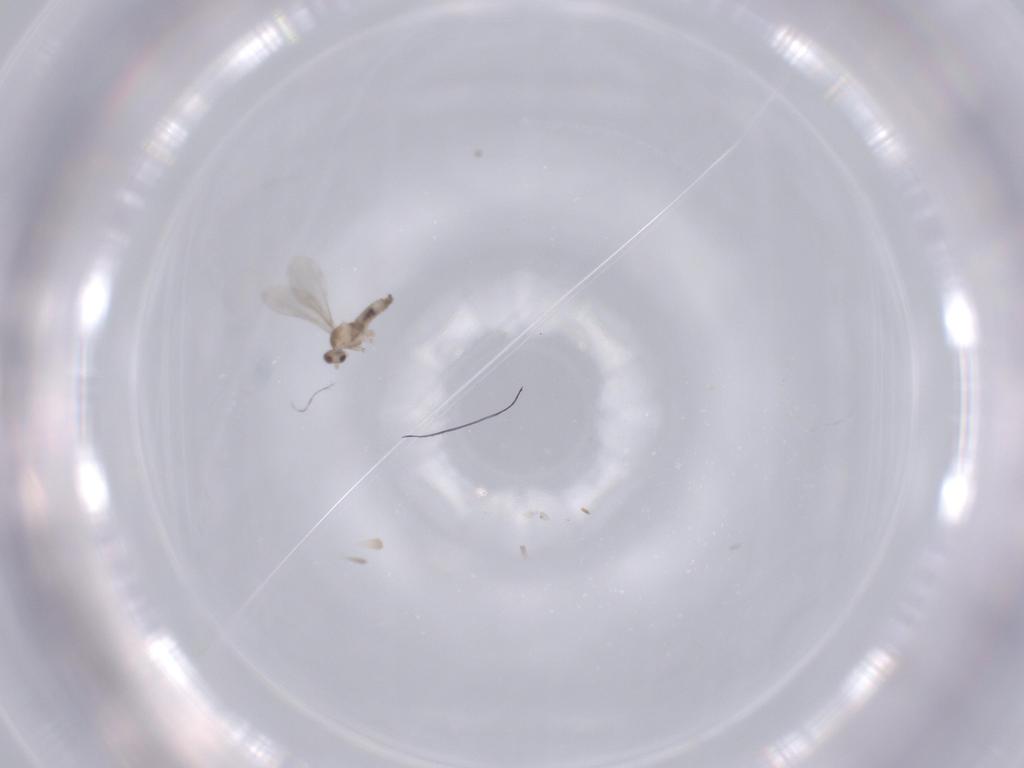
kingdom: Animalia
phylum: Arthropoda
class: Insecta
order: Diptera
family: Cecidomyiidae
